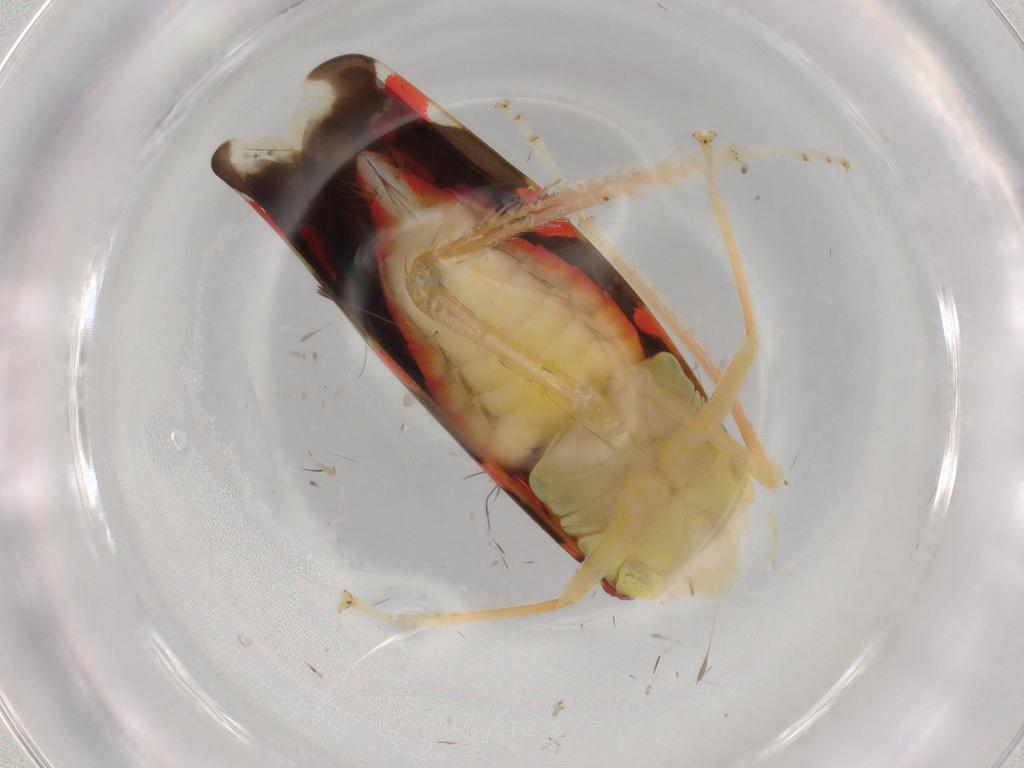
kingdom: Animalia
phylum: Arthropoda
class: Insecta
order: Hemiptera
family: Cicadellidae
